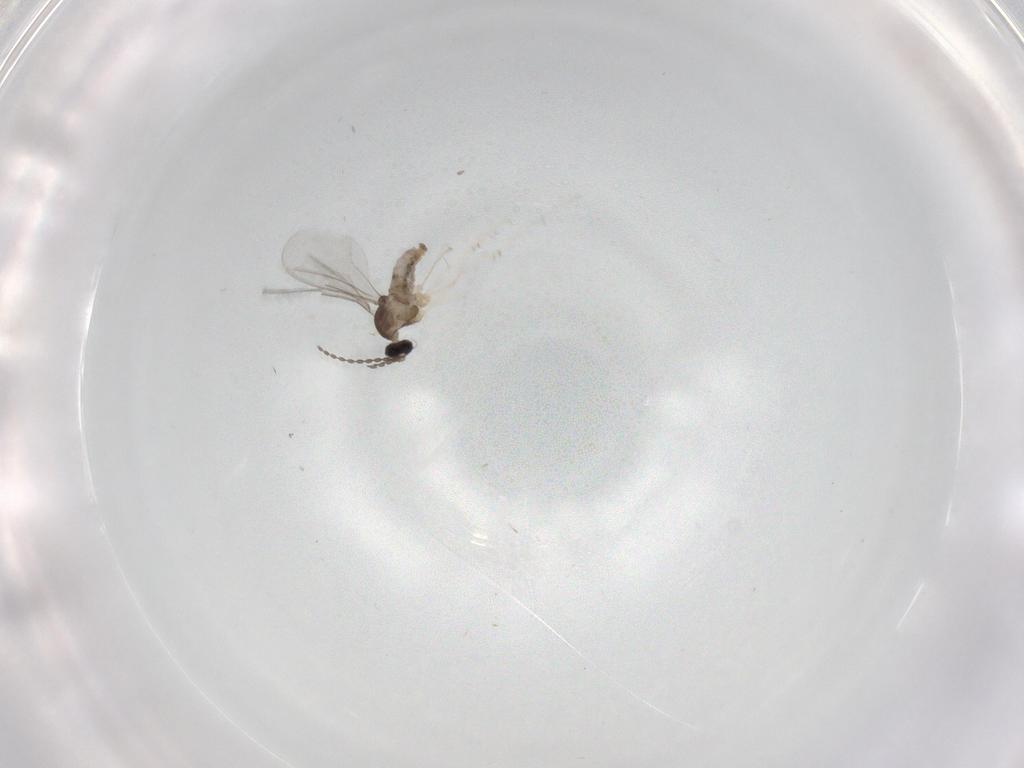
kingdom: Animalia
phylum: Arthropoda
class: Insecta
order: Diptera
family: Cecidomyiidae
